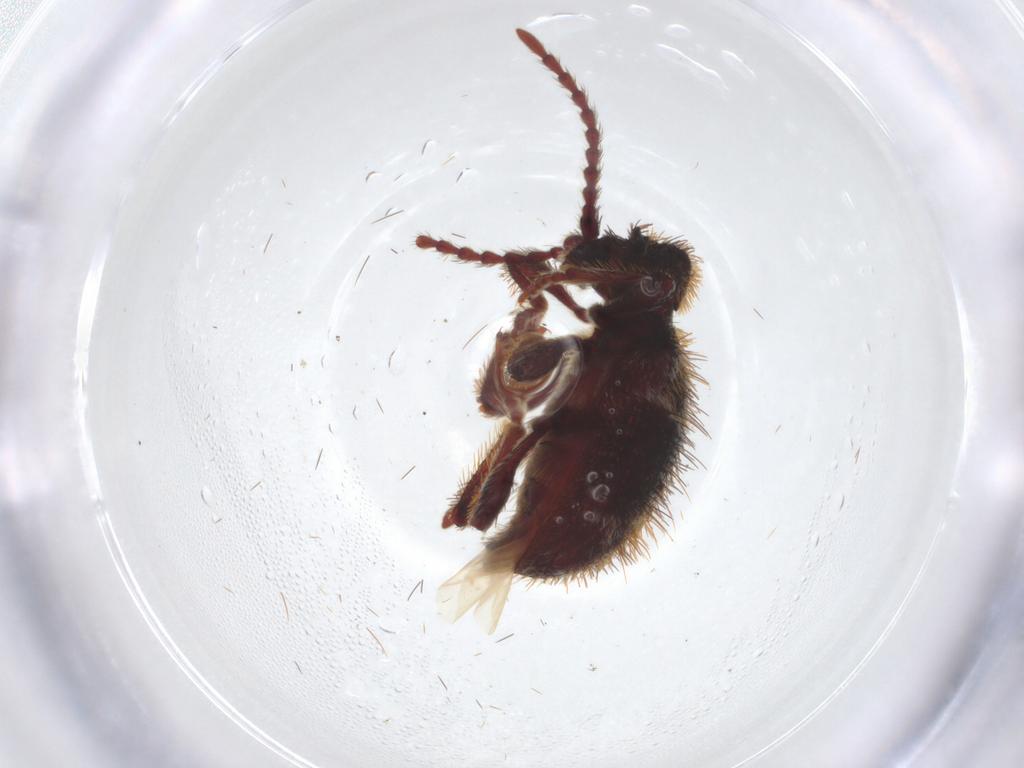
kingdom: Animalia
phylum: Arthropoda
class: Insecta
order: Coleoptera
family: Ptinidae
